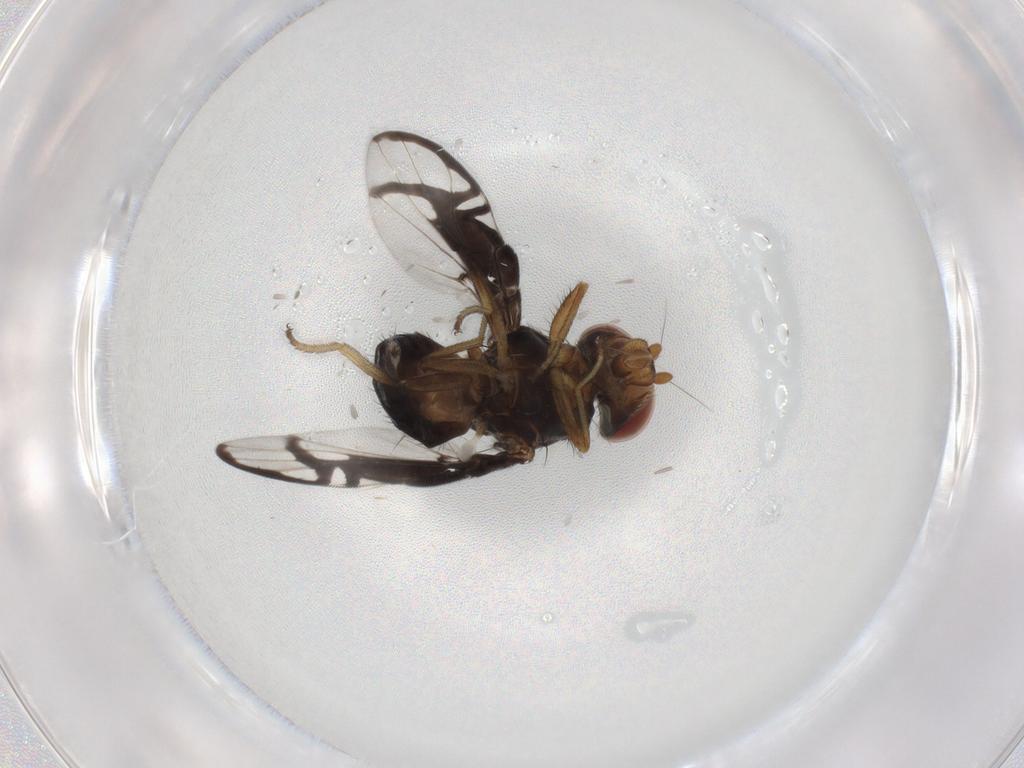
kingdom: Animalia
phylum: Arthropoda
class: Insecta
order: Diptera
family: Ulidiidae
